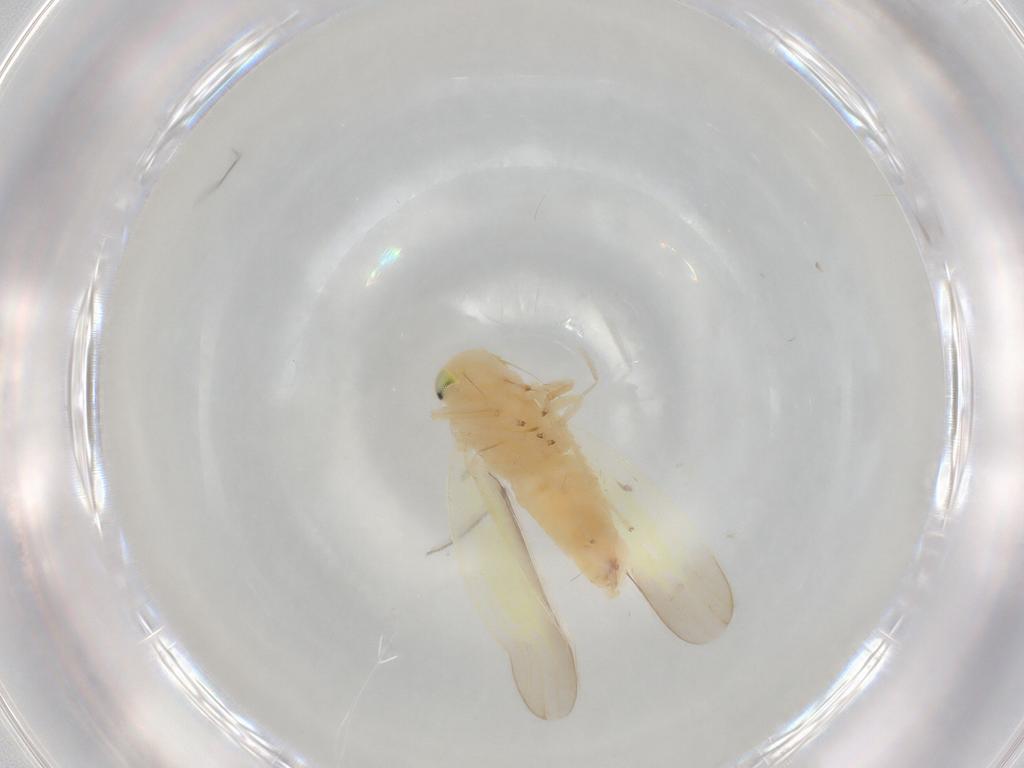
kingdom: Animalia
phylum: Arthropoda
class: Insecta
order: Hemiptera
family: Cicadellidae
